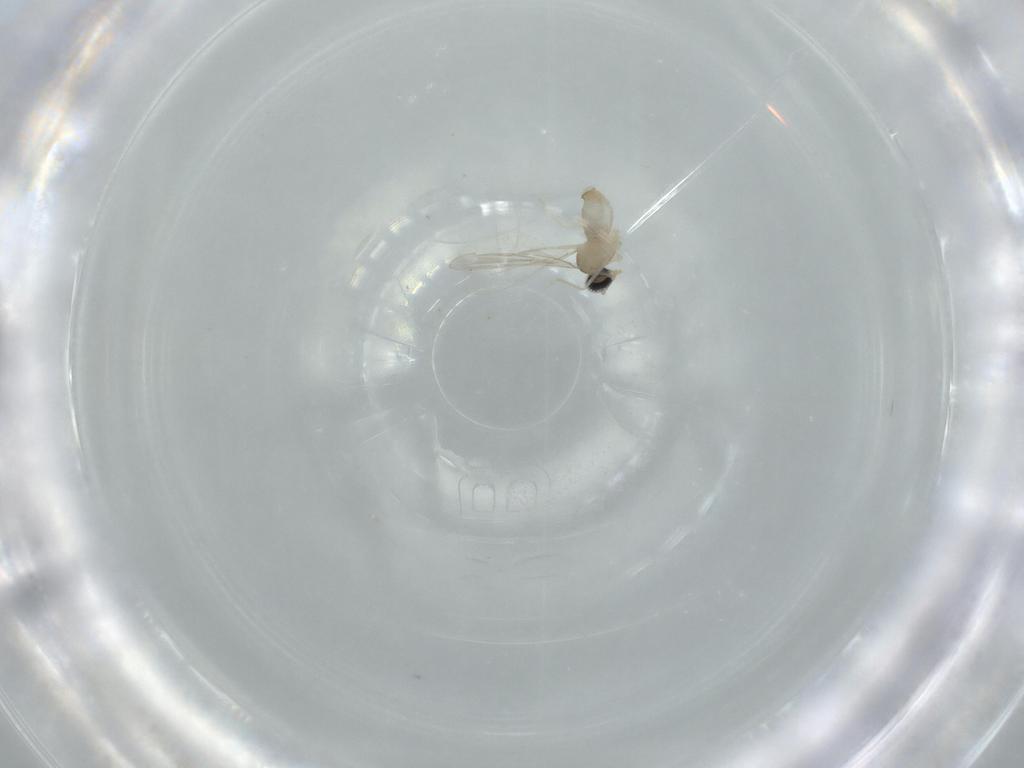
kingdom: Animalia
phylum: Arthropoda
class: Insecta
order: Diptera
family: Cecidomyiidae
